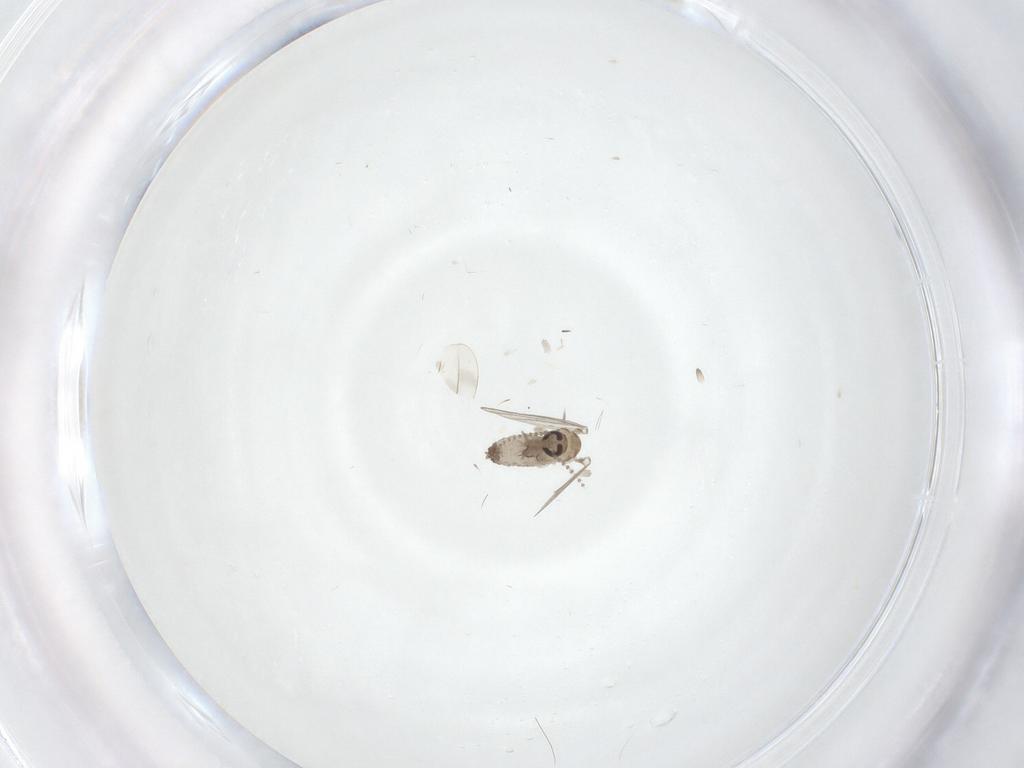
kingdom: Animalia
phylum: Arthropoda
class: Insecta
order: Diptera
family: Psychodidae
